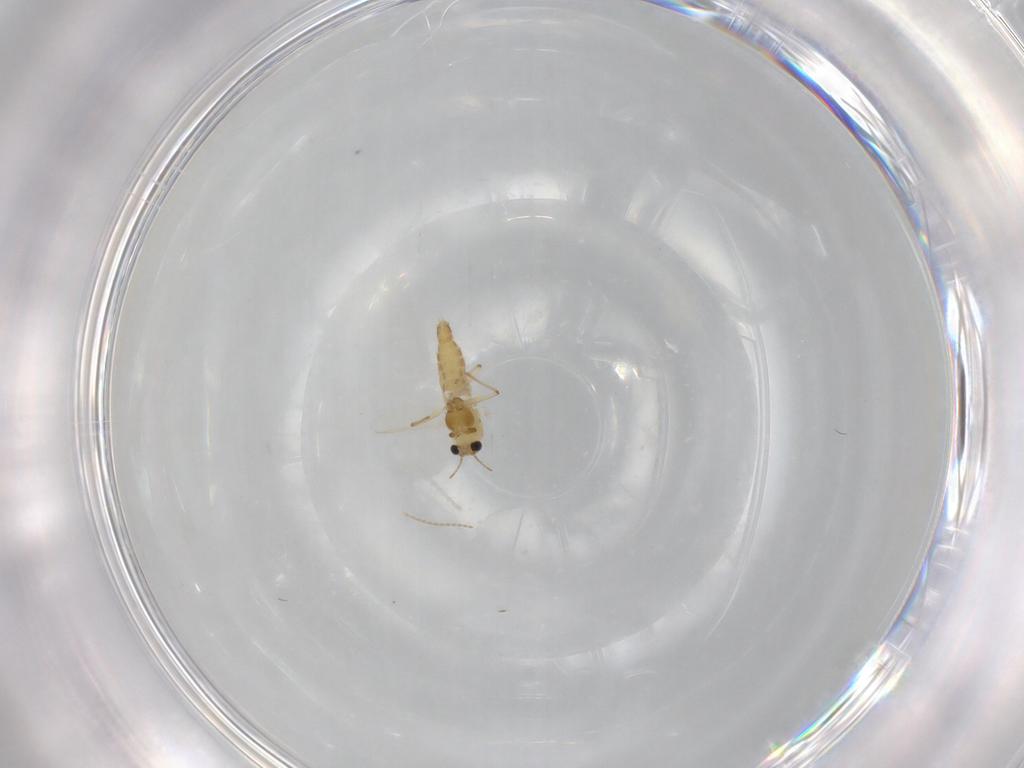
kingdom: Animalia
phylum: Arthropoda
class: Insecta
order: Diptera
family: Chironomidae
